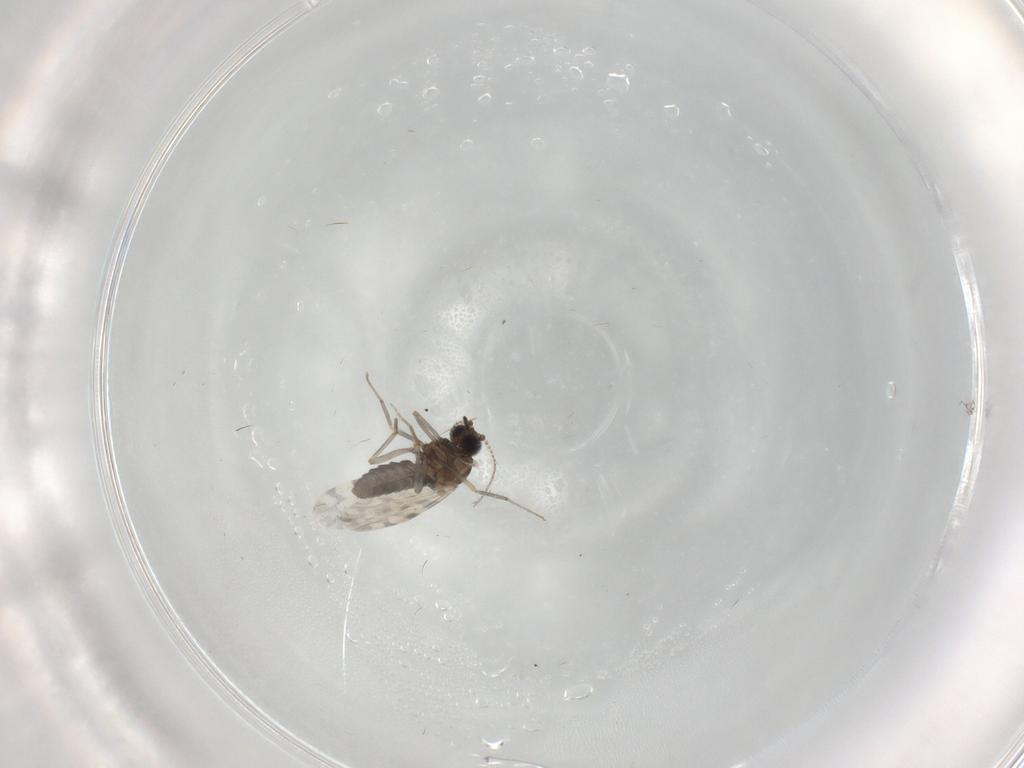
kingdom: Animalia
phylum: Arthropoda
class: Insecta
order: Diptera
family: Ceratopogonidae
